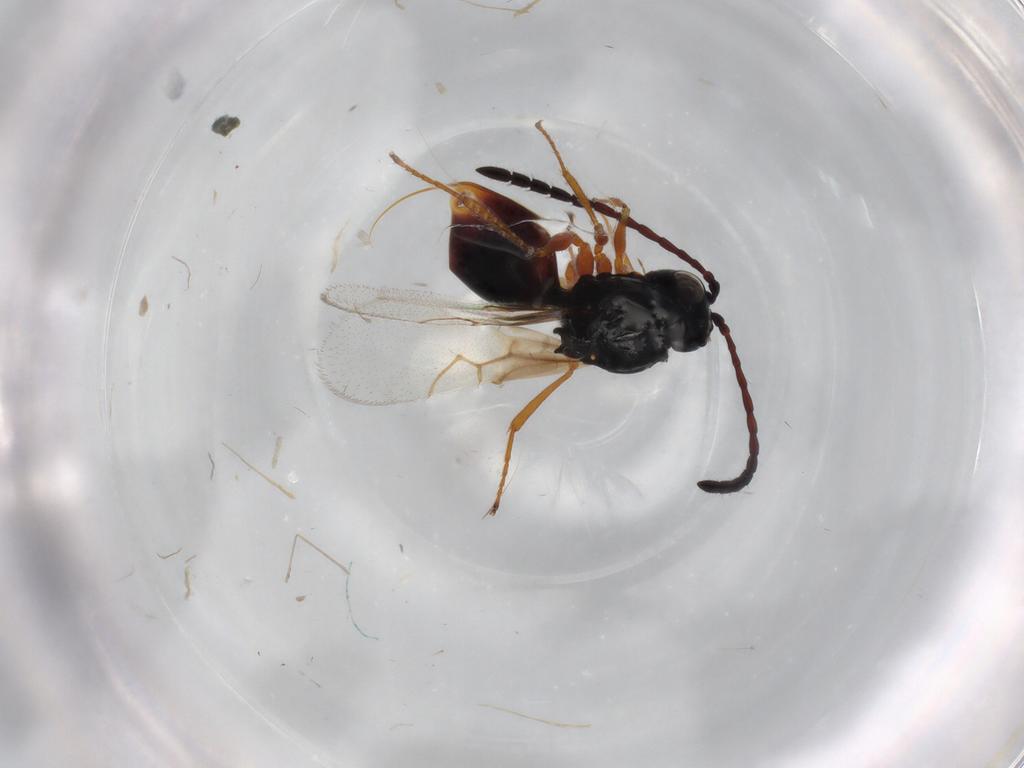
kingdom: Animalia
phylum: Arthropoda
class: Insecta
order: Hymenoptera
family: Figitidae
